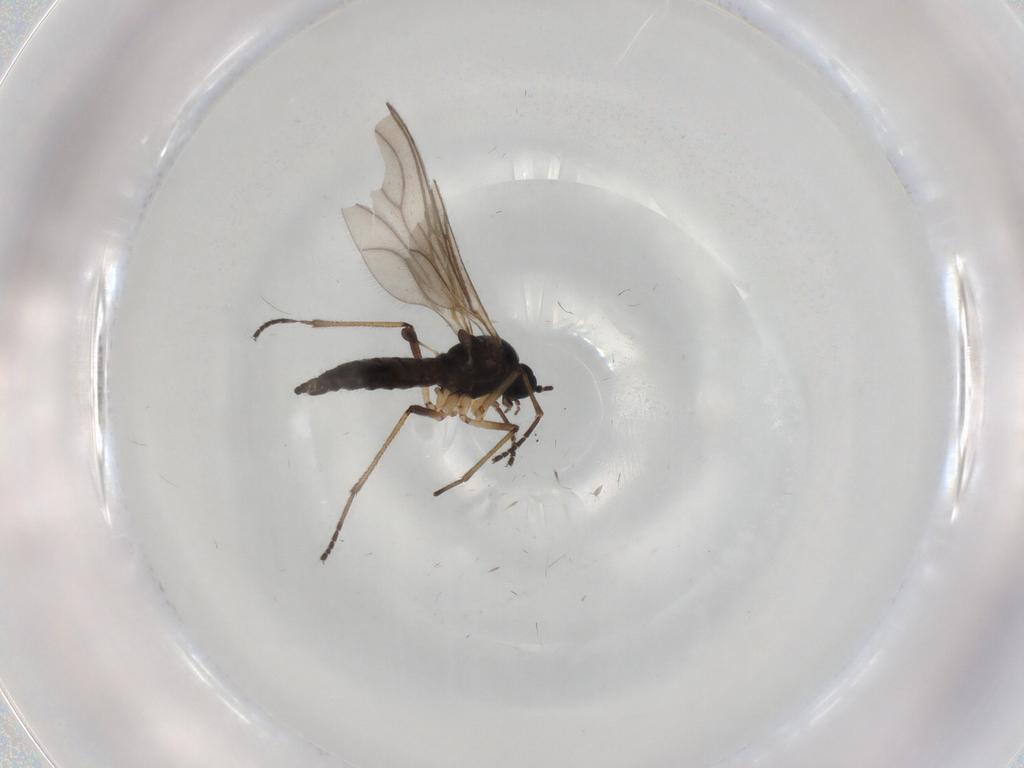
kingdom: Animalia
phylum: Arthropoda
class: Insecta
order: Diptera
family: Sciaridae
